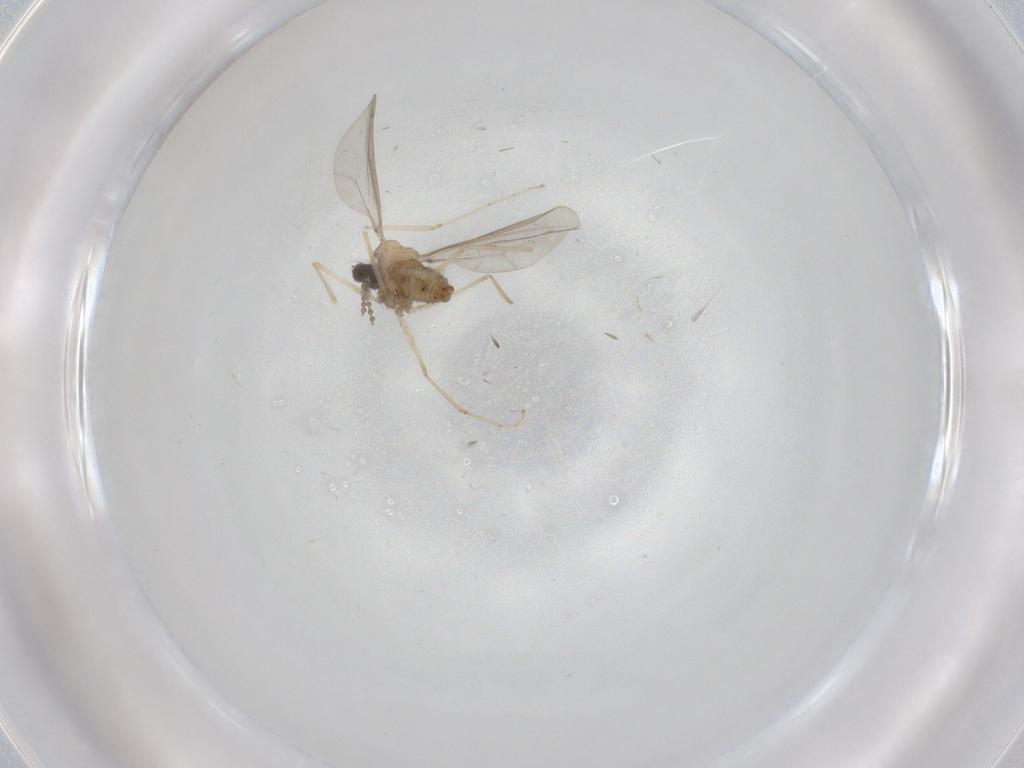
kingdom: Animalia
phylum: Arthropoda
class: Insecta
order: Diptera
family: Cecidomyiidae
